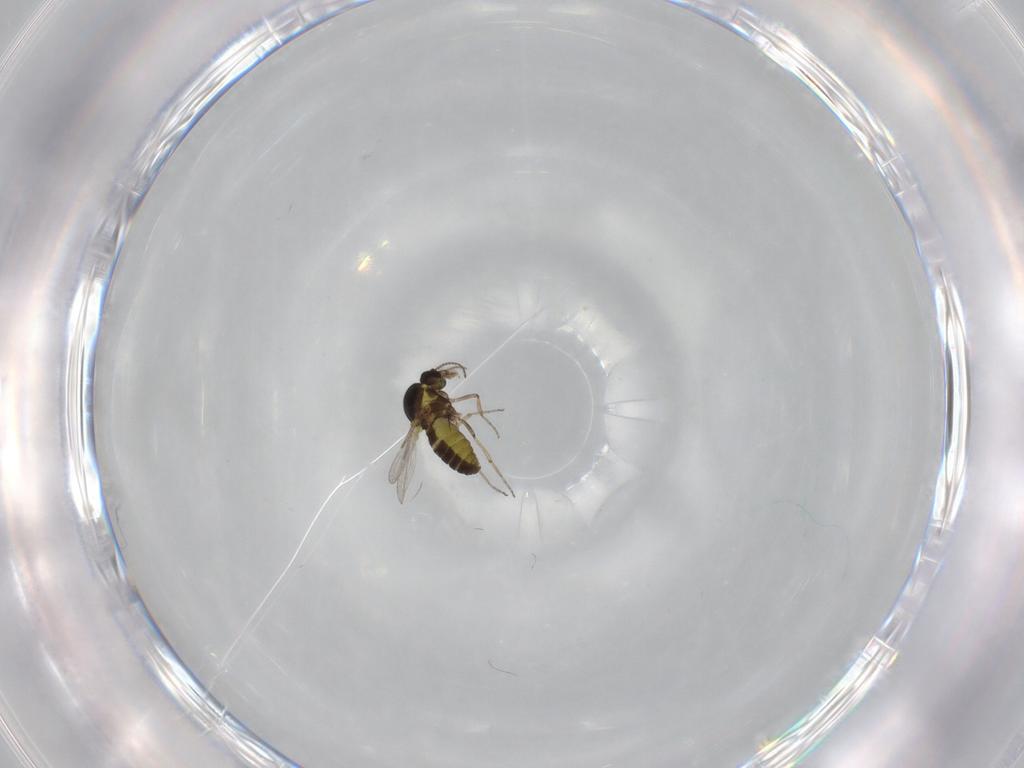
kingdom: Animalia
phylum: Arthropoda
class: Insecta
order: Diptera
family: Ceratopogonidae
